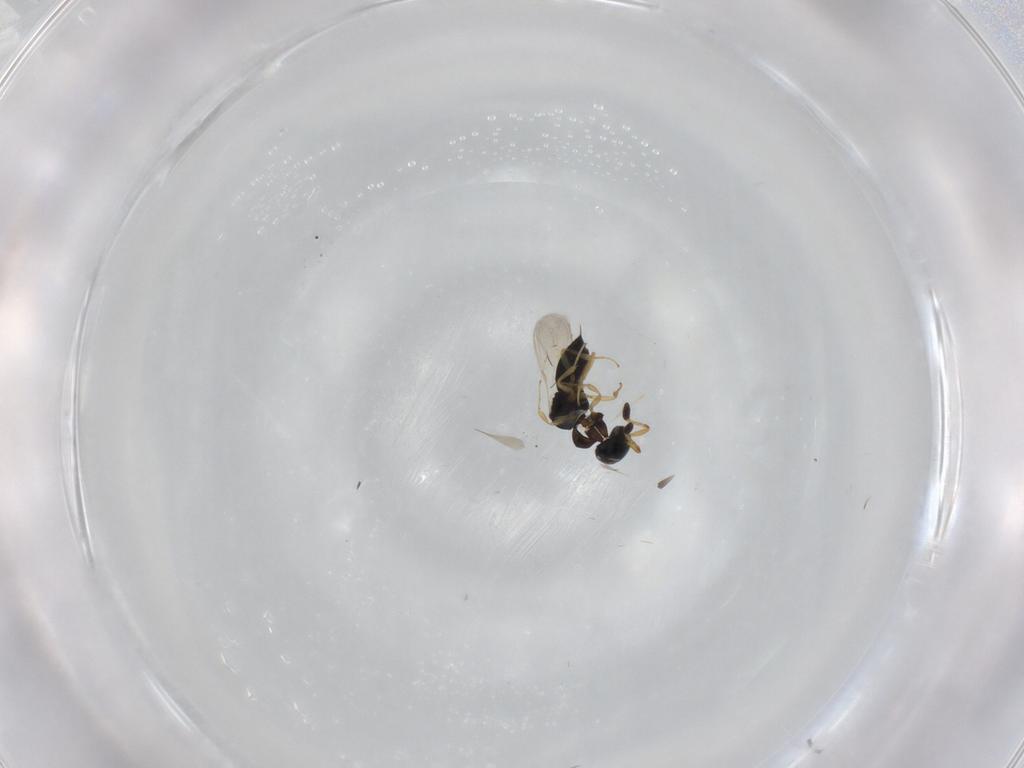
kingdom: Animalia
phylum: Arthropoda
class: Insecta
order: Hymenoptera
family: Scelionidae
